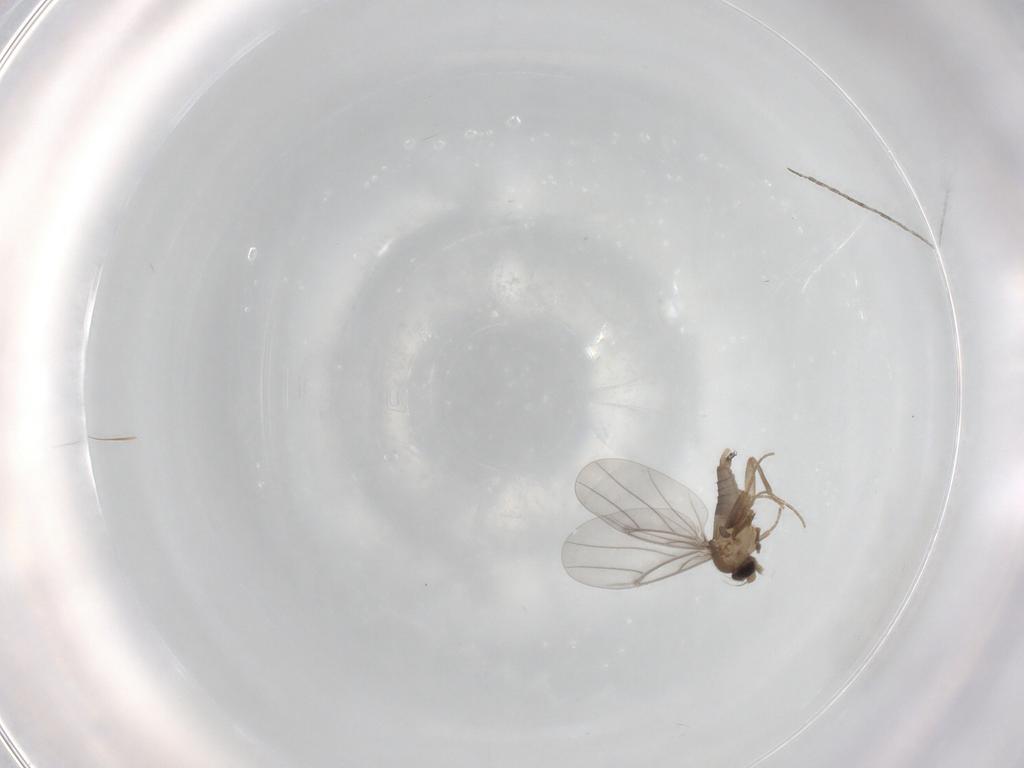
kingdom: Animalia
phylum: Arthropoda
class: Insecta
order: Diptera
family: Cecidomyiidae
